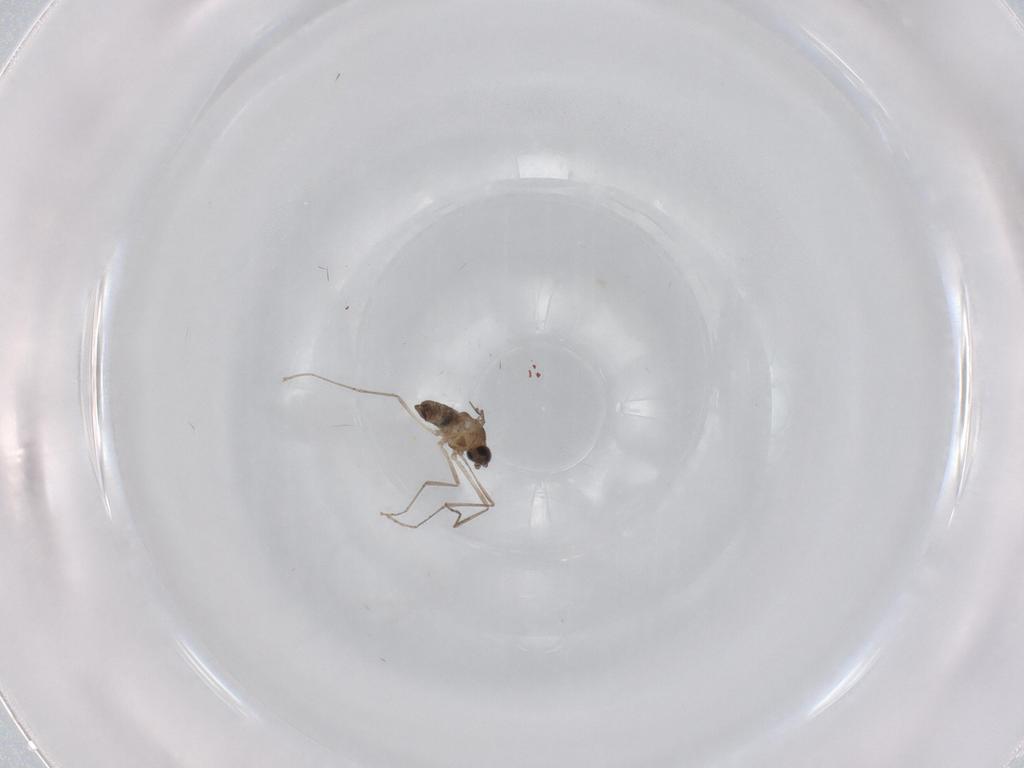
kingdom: Animalia
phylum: Arthropoda
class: Insecta
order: Diptera
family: Cecidomyiidae
